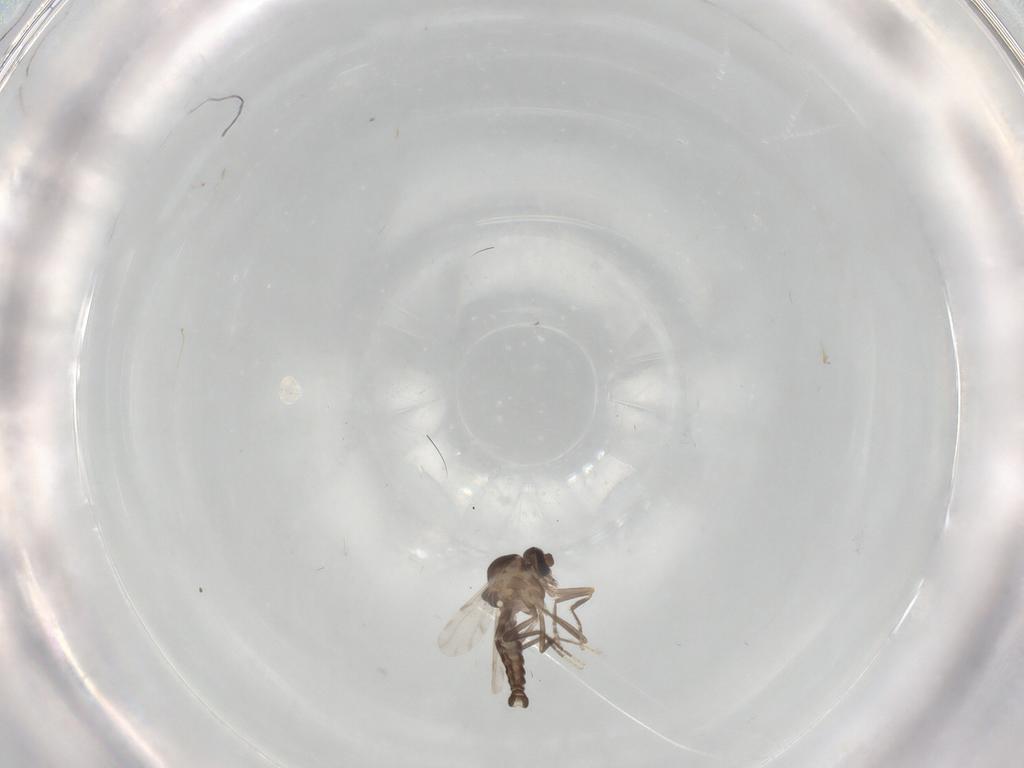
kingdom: Animalia
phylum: Arthropoda
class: Insecta
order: Diptera
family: Ceratopogonidae
